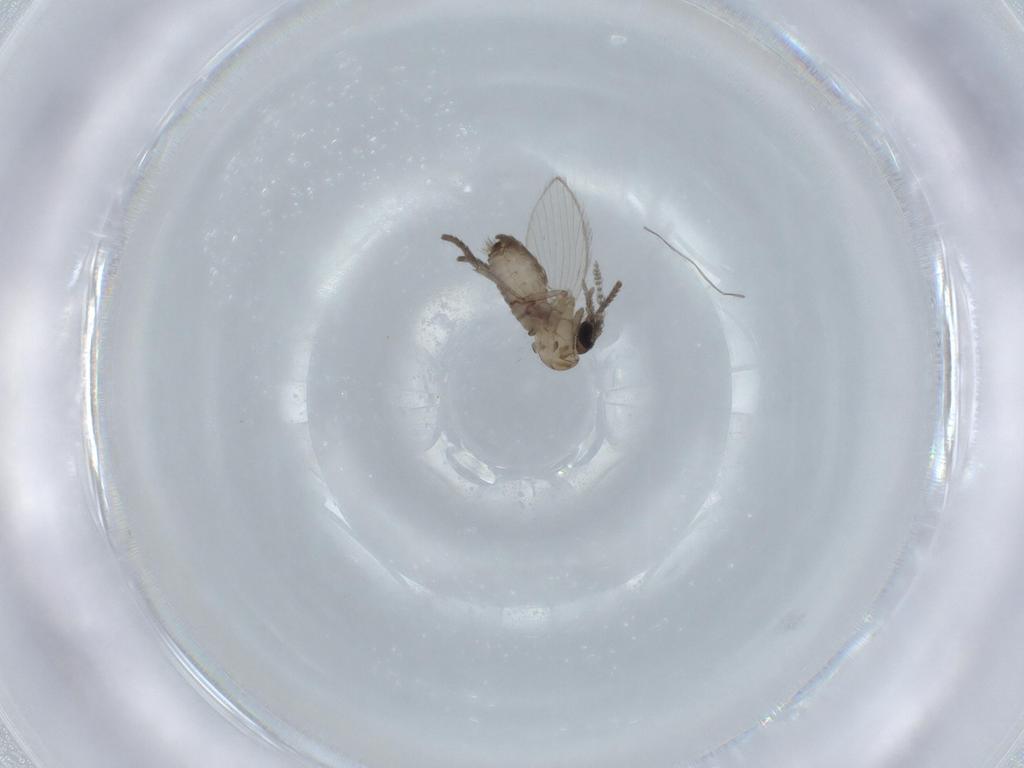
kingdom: Animalia
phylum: Arthropoda
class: Insecta
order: Diptera
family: Psychodidae
